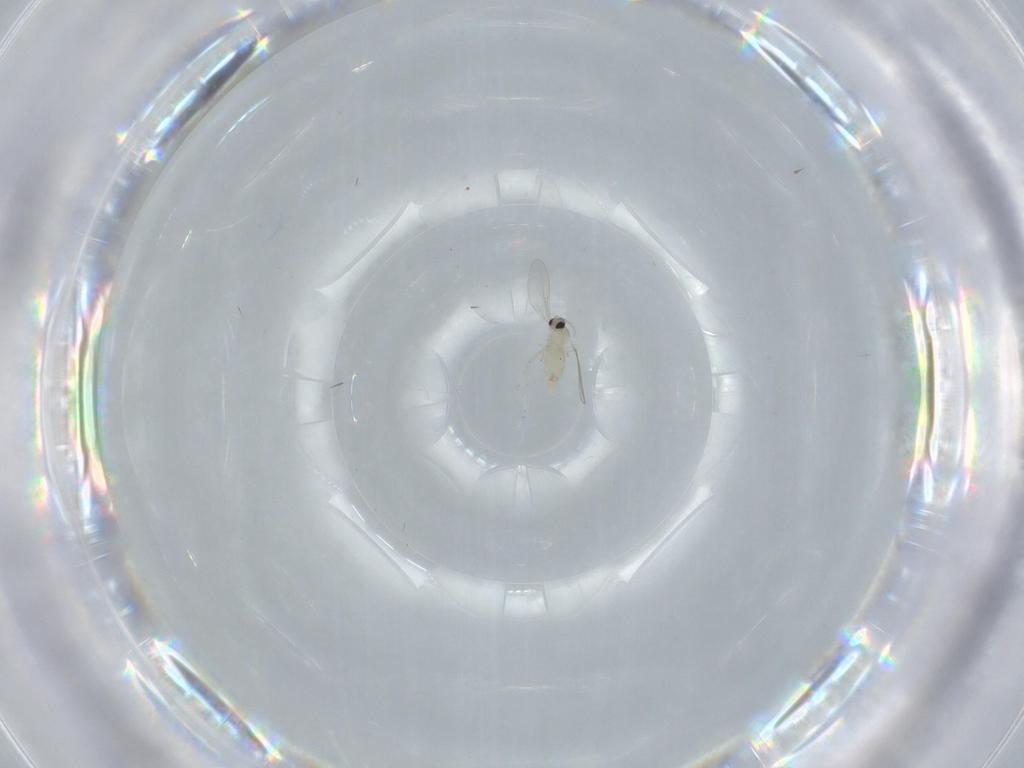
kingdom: Animalia
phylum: Arthropoda
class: Insecta
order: Diptera
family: Cecidomyiidae
